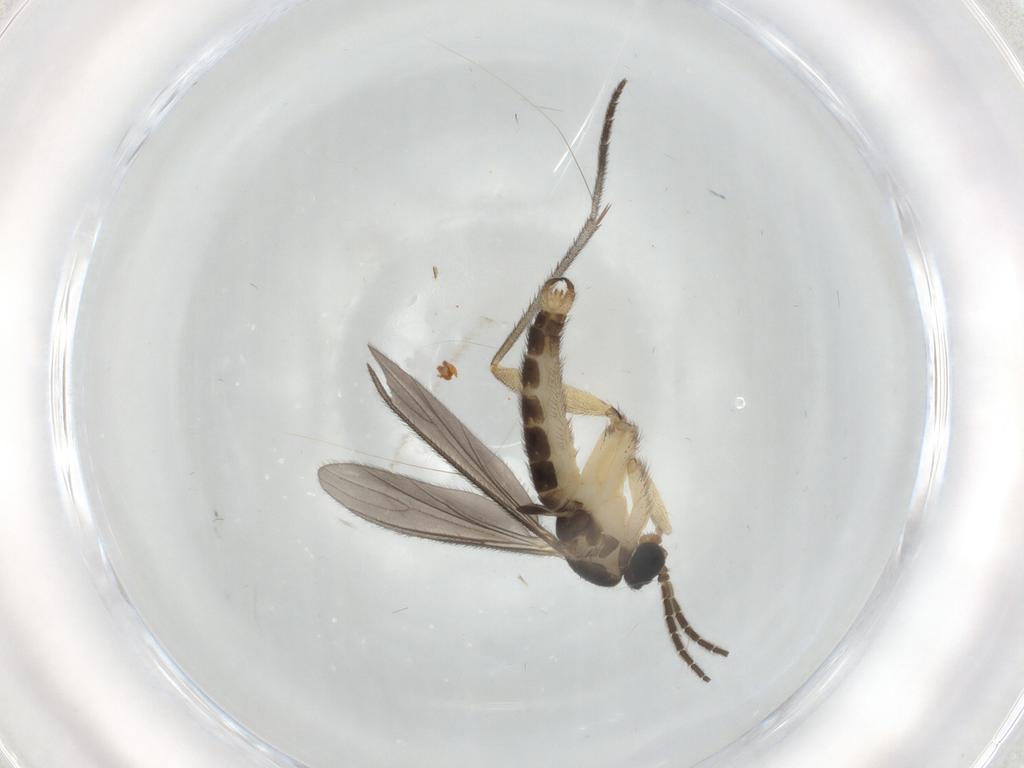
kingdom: Animalia
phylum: Arthropoda
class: Insecta
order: Diptera
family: Sciaridae
